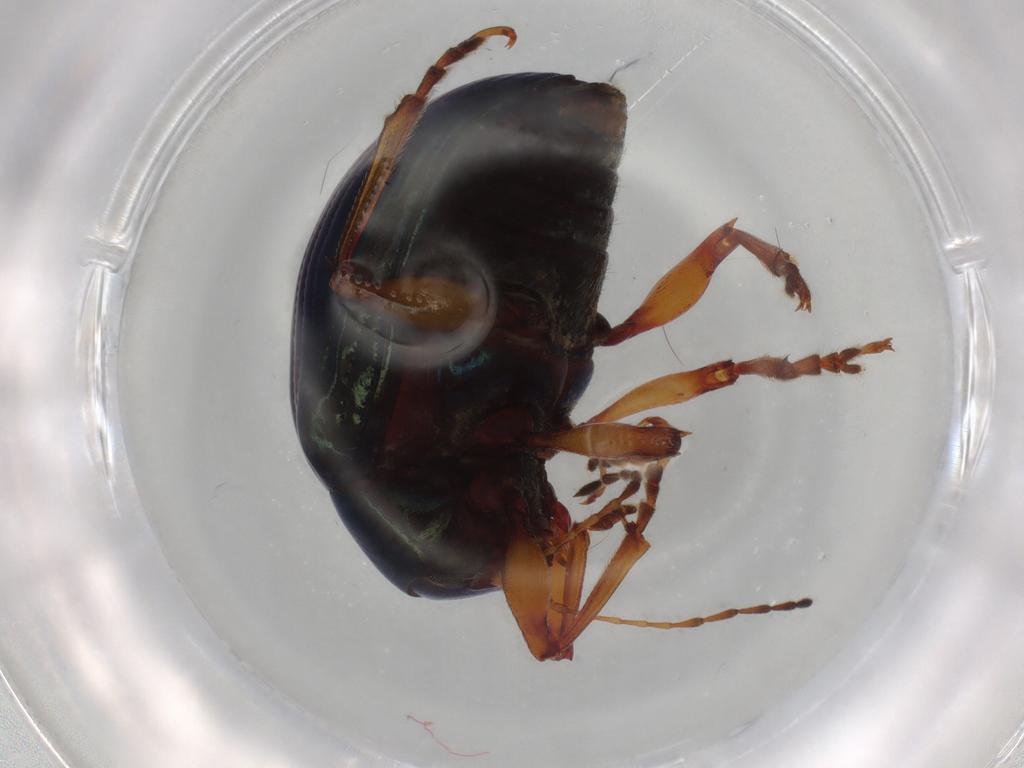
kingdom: Animalia
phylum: Arthropoda
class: Insecta
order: Coleoptera
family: Chrysomelidae
